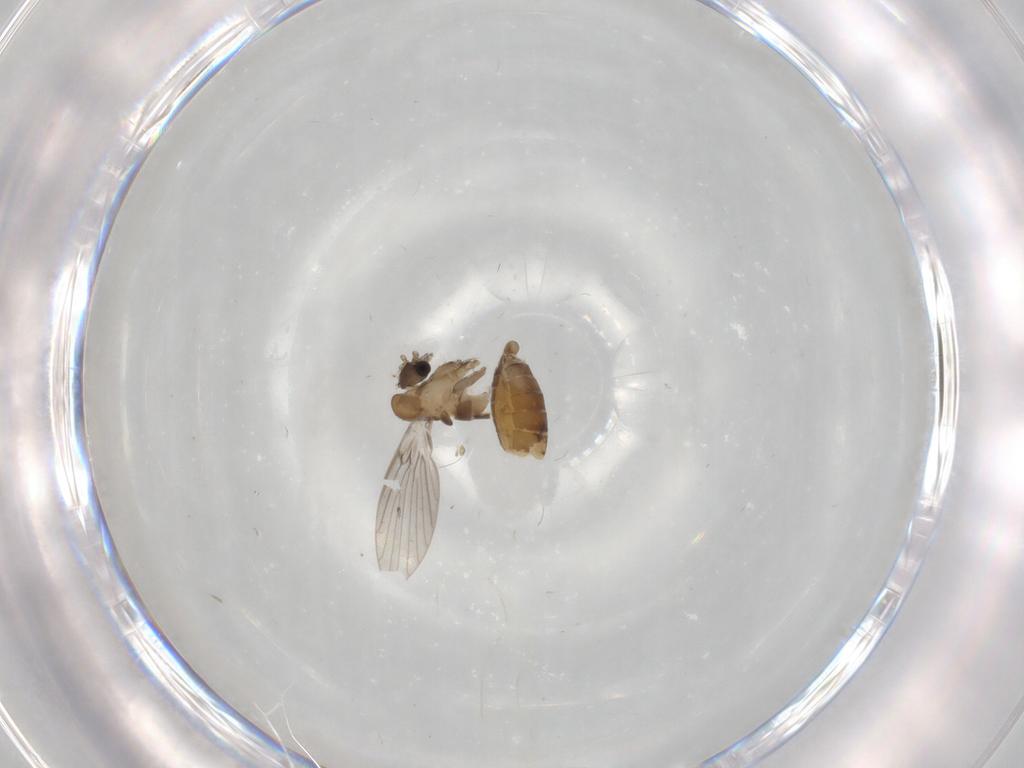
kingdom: Animalia
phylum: Arthropoda
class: Insecta
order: Diptera
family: Psychodidae
